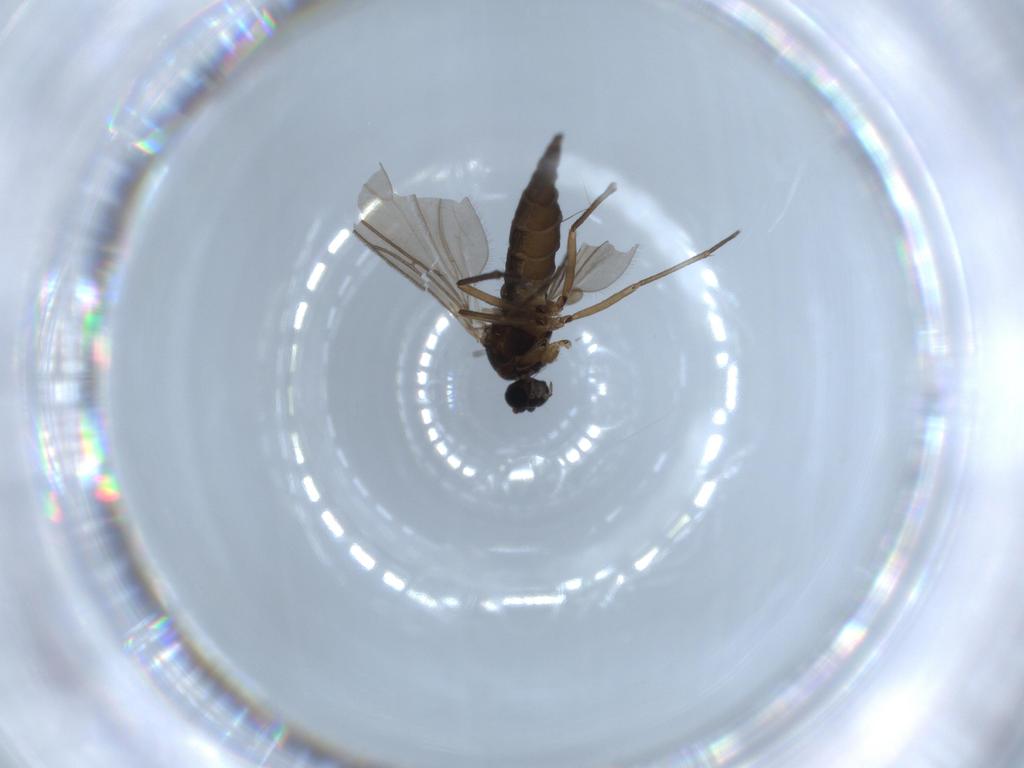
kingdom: Animalia
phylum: Arthropoda
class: Insecta
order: Diptera
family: Sciaridae
